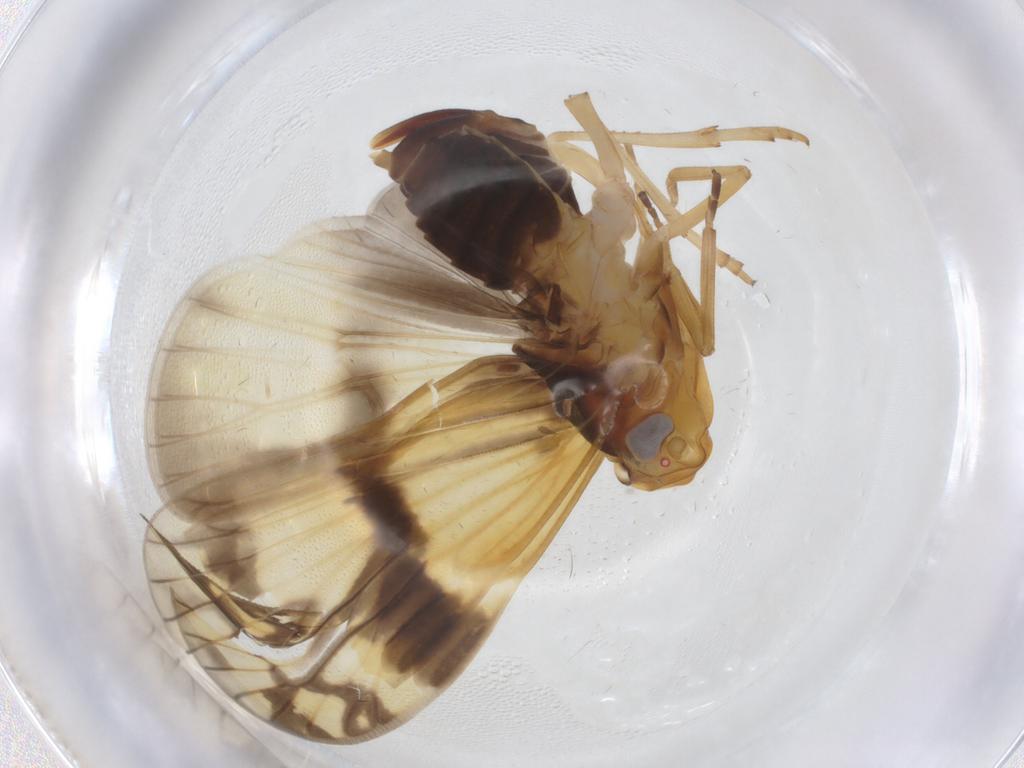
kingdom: Animalia
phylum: Arthropoda
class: Insecta
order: Hemiptera
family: Cixiidae
